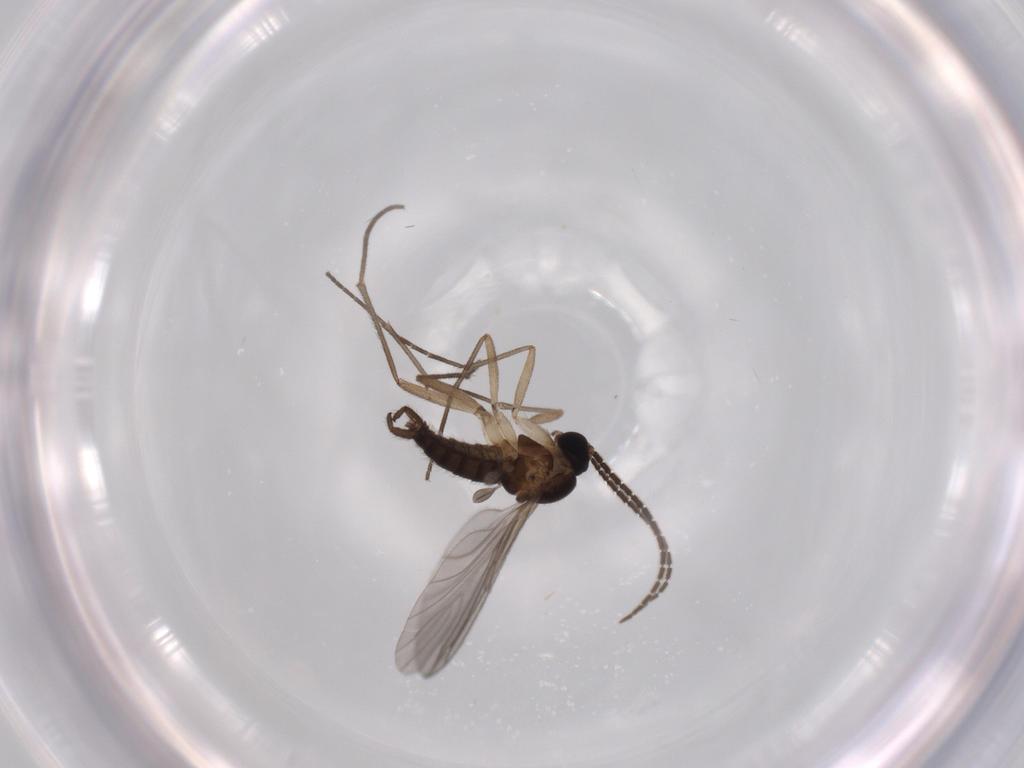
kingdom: Animalia
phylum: Arthropoda
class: Insecta
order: Diptera
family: Sciaridae
